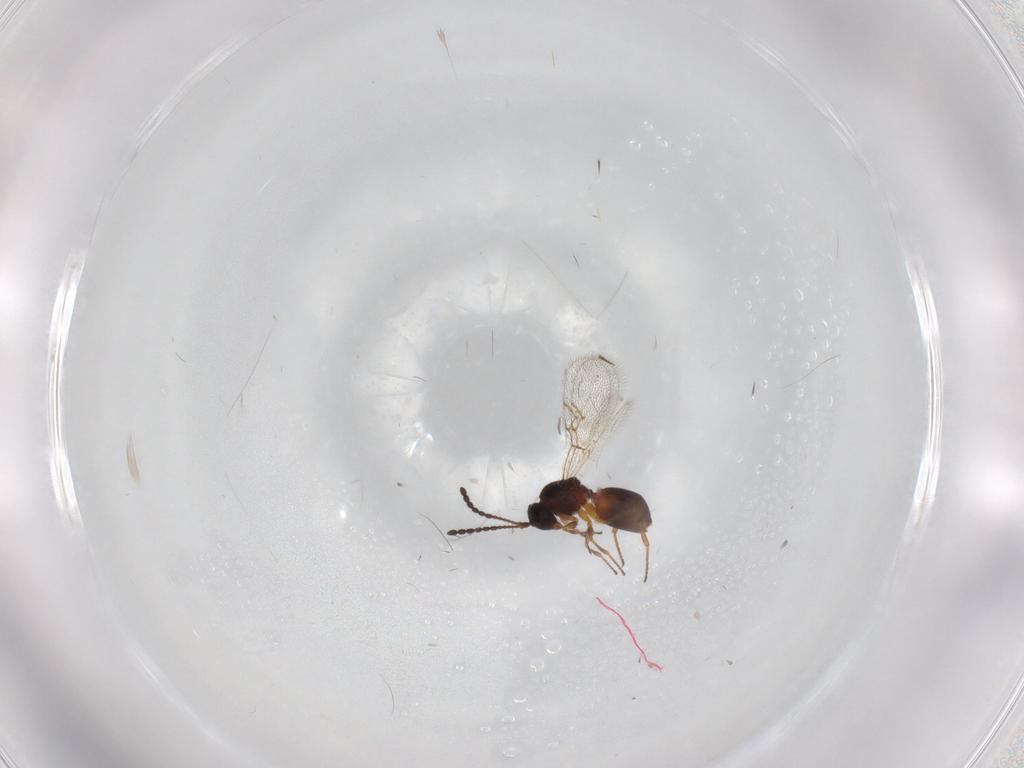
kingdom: Animalia
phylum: Arthropoda
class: Insecta
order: Hymenoptera
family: Figitidae
